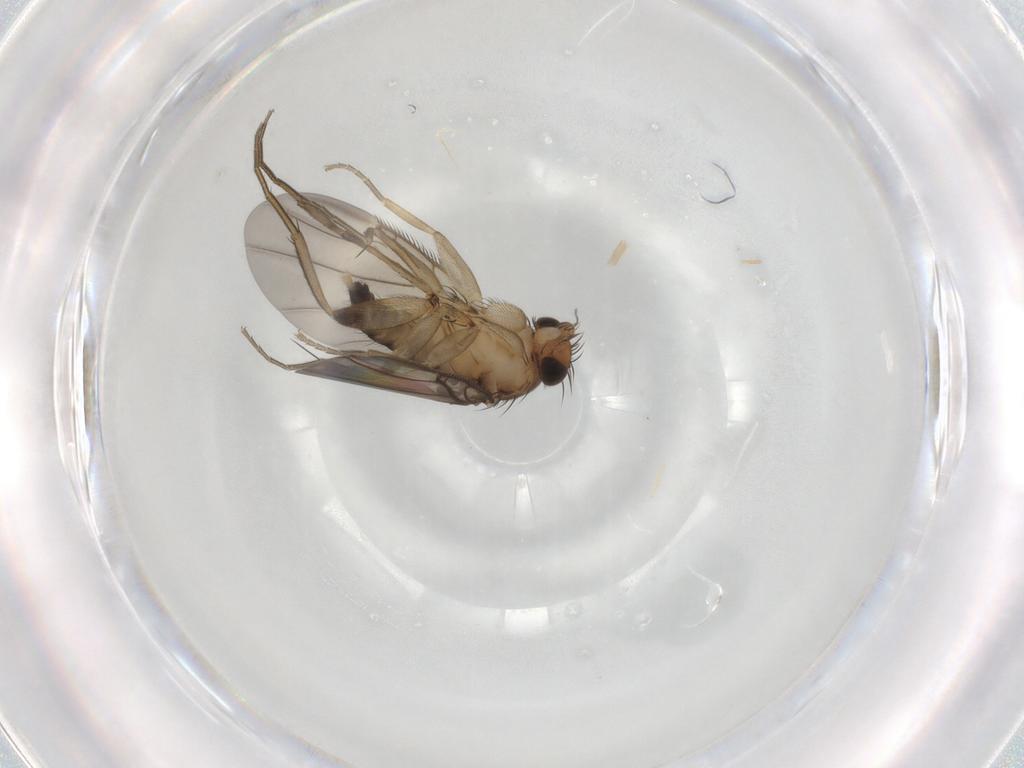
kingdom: Animalia
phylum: Arthropoda
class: Insecta
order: Diptera
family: Phoridae
